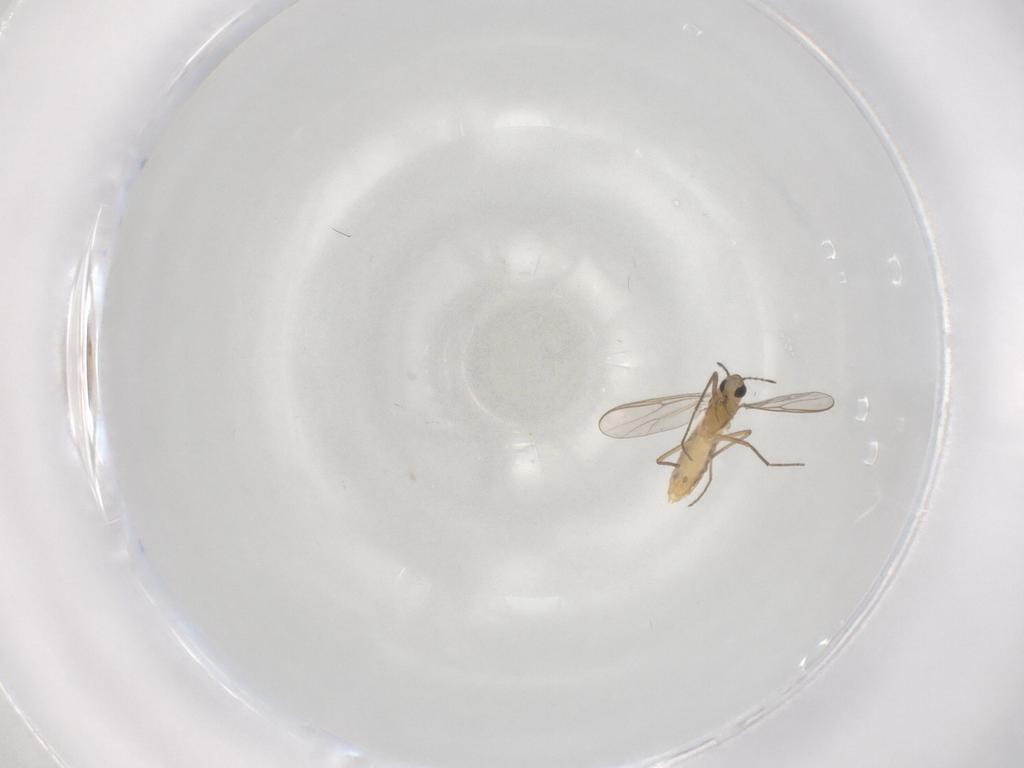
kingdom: Animalia
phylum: Arthropoda
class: Insecta
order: Diptera
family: Chironomidae
